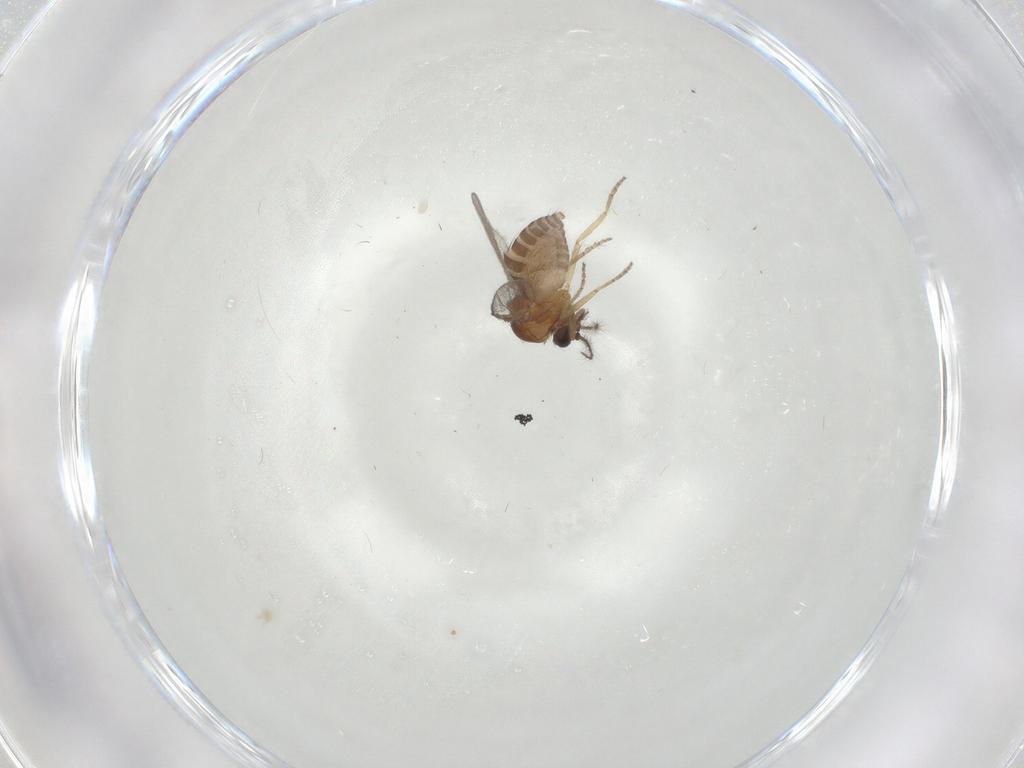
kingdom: Animalia
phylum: Arthropoda
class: Insecta
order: Diptera
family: Ceratopogonidae
